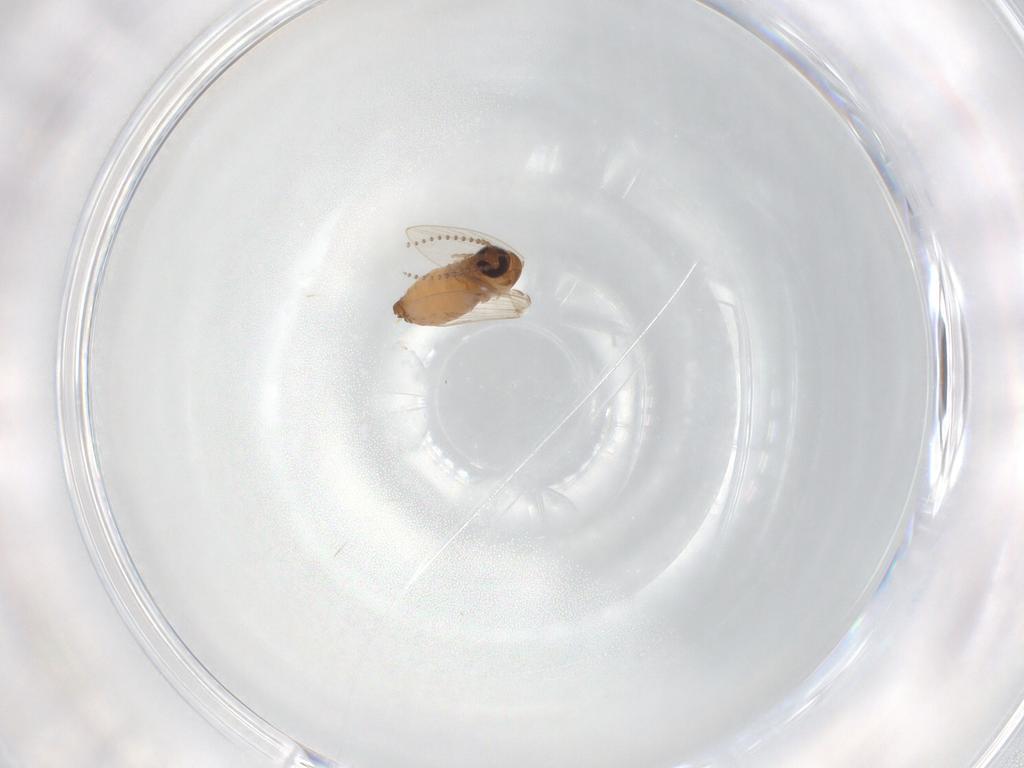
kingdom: Animalia
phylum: Arthropoda
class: Insecta
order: Diptera
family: Psychodidae
